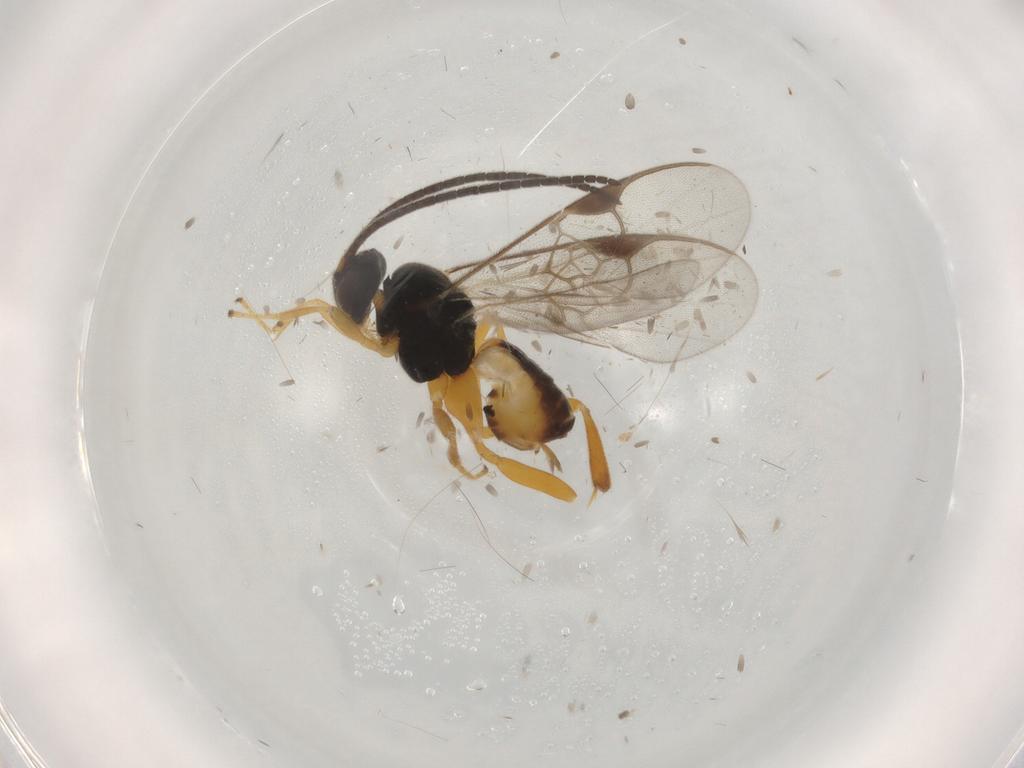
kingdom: Animalia
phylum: Arthropoda
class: Insecta
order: Hymenoptera
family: Braconidae
